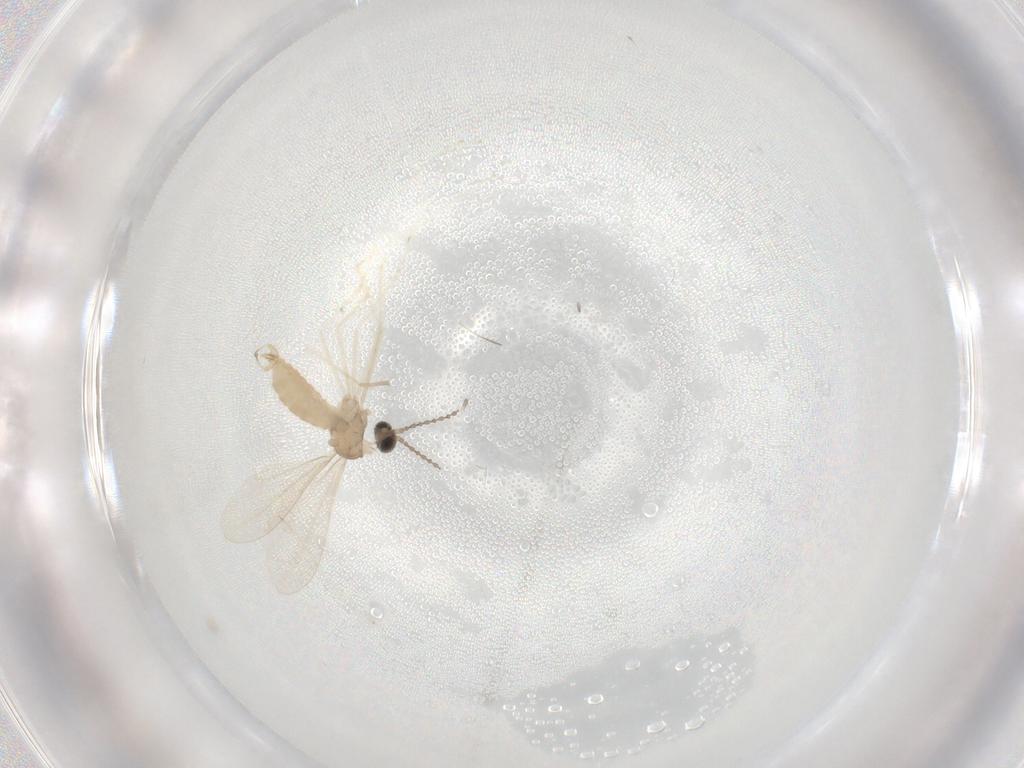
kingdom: Animalia
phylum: Arthropoda
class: Insecta
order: Diptera
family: Cecidomyiidae
